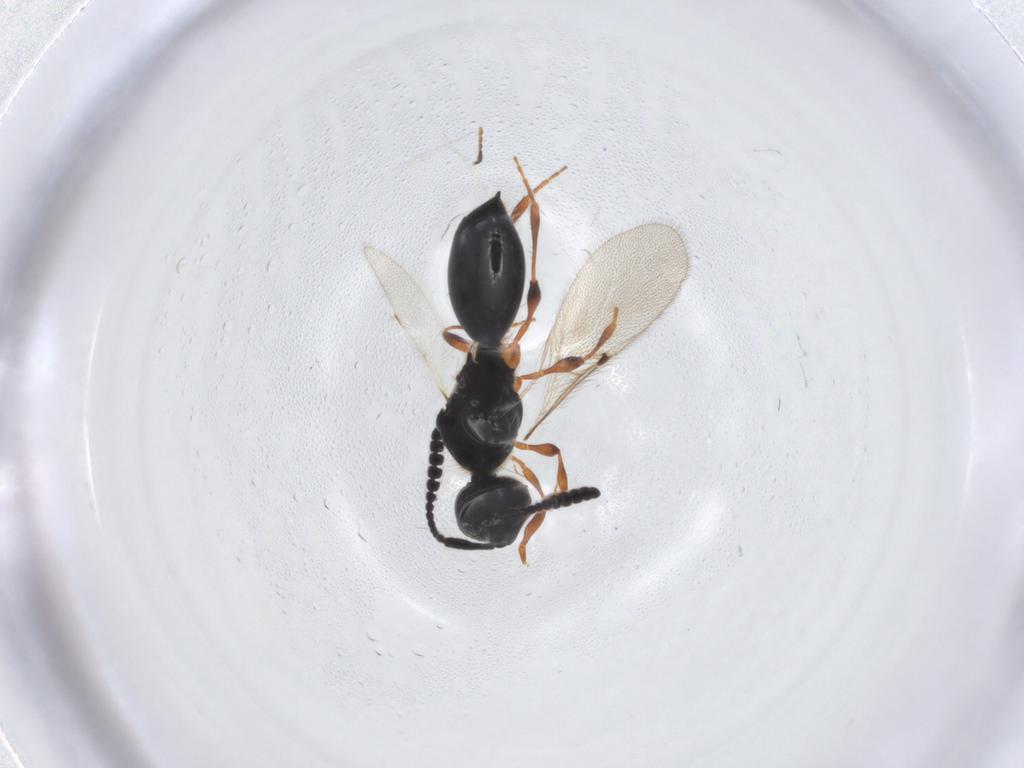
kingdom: Animalia
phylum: Arthropoda
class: Insecta
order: Hymenoptera
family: Diapriidae
